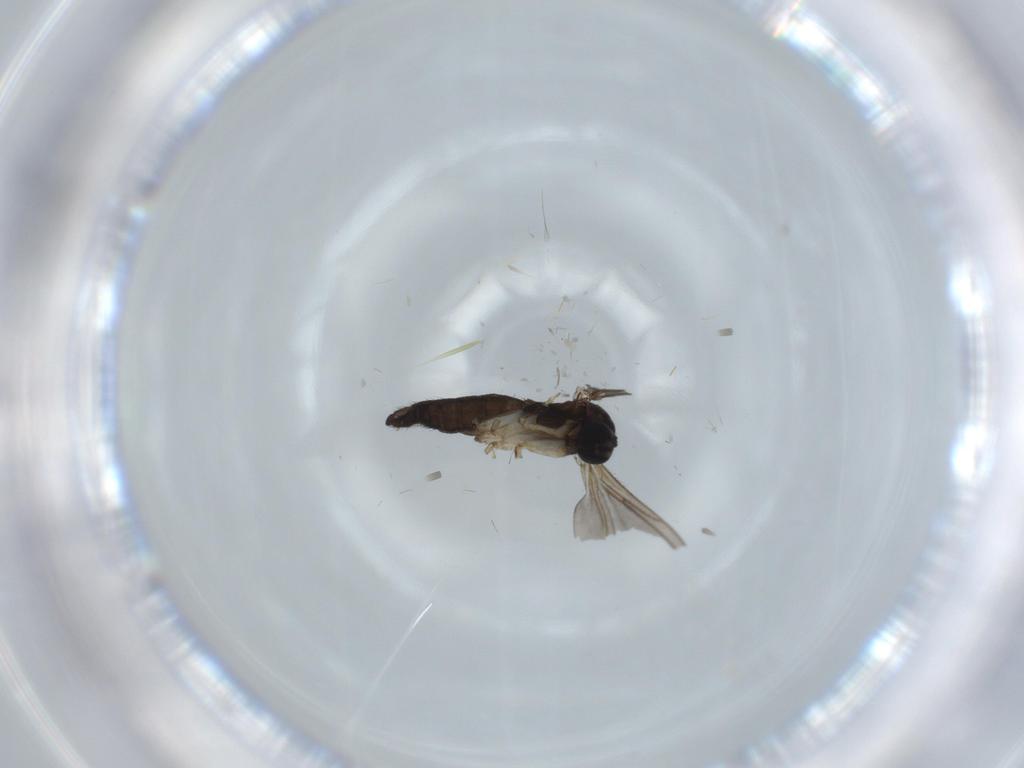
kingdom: Animalia
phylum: Arthropoda
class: Insecta
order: Diptera
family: Sciaridae
